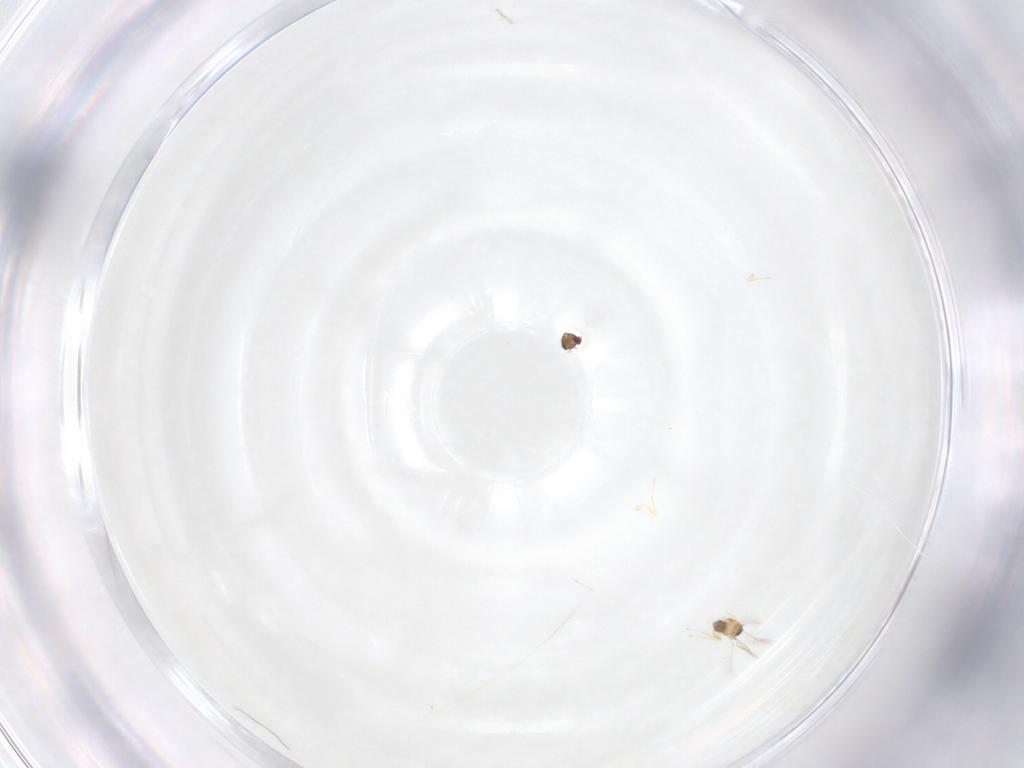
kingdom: Animalia
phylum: Arthropoda
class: Insecta
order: Hymenoptera
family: Mymaridae
